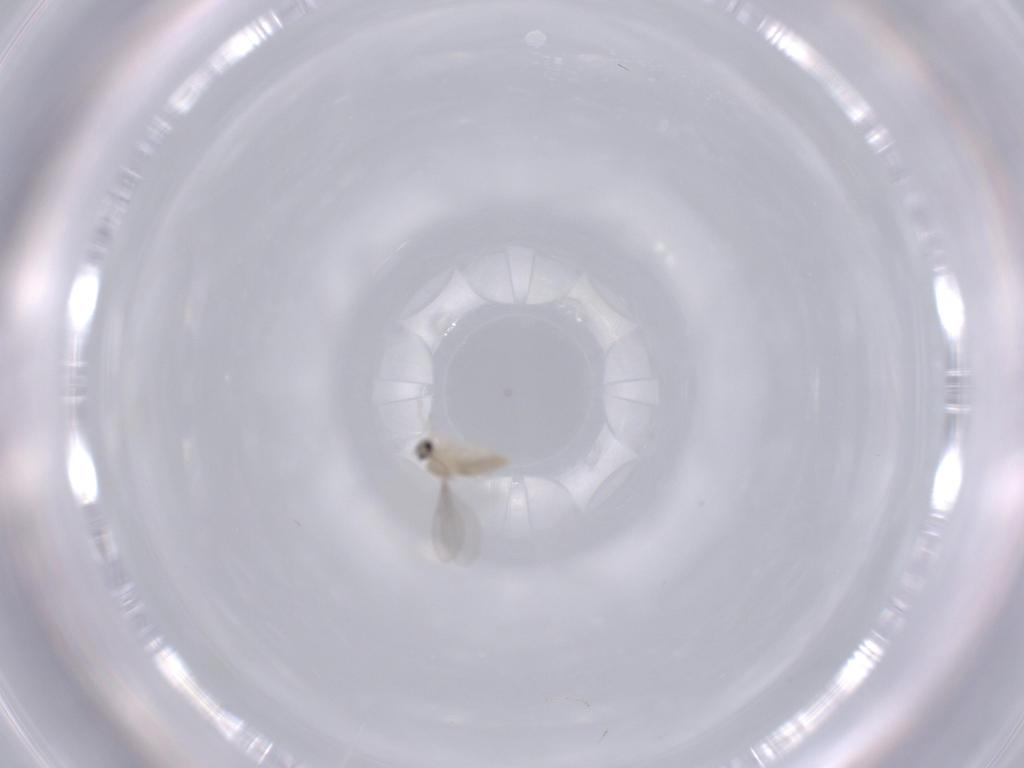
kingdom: Animalia
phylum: Arthropoda
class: Insecta
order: Diptera
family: Cecidomyiidae
